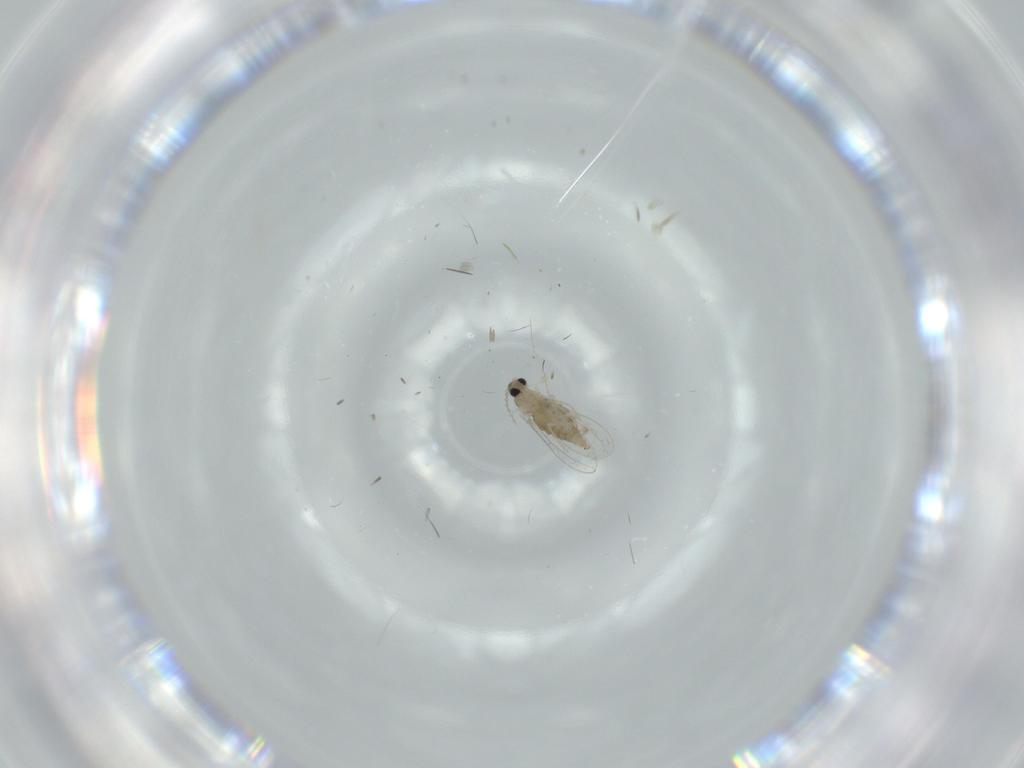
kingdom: Animalia
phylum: Arthropoda
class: Insecta
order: Diptera
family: Cecidomyiidae
